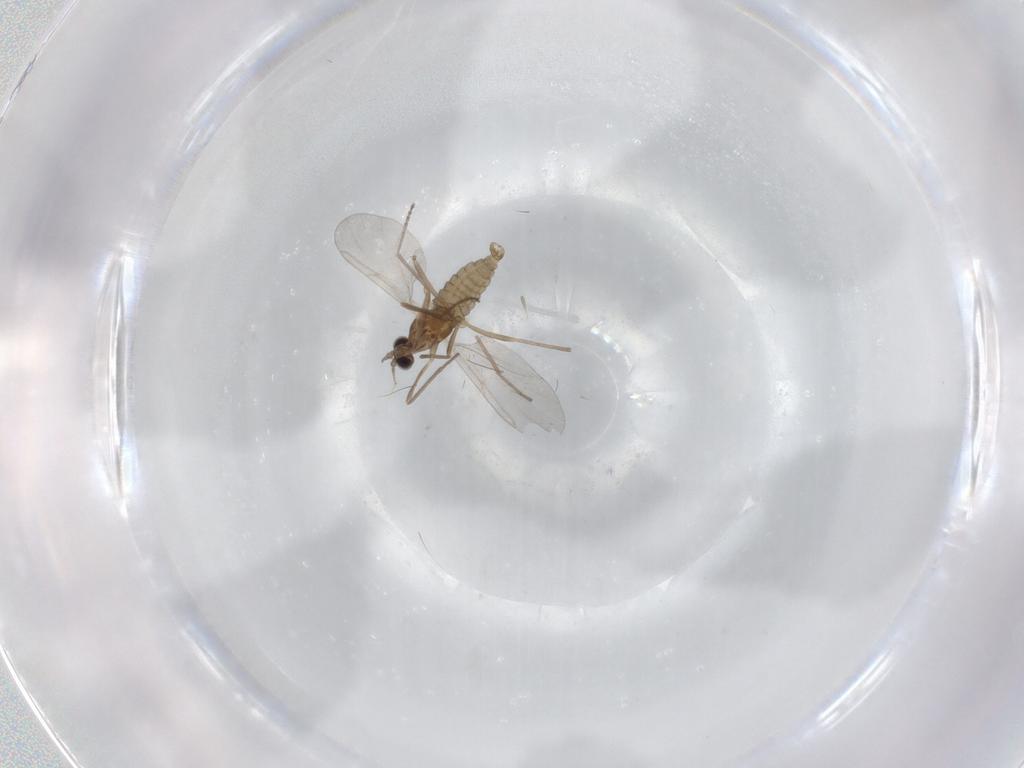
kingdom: Animalia
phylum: Arthropoda
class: Insecta
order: Diptera
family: Cecidomyiidae
